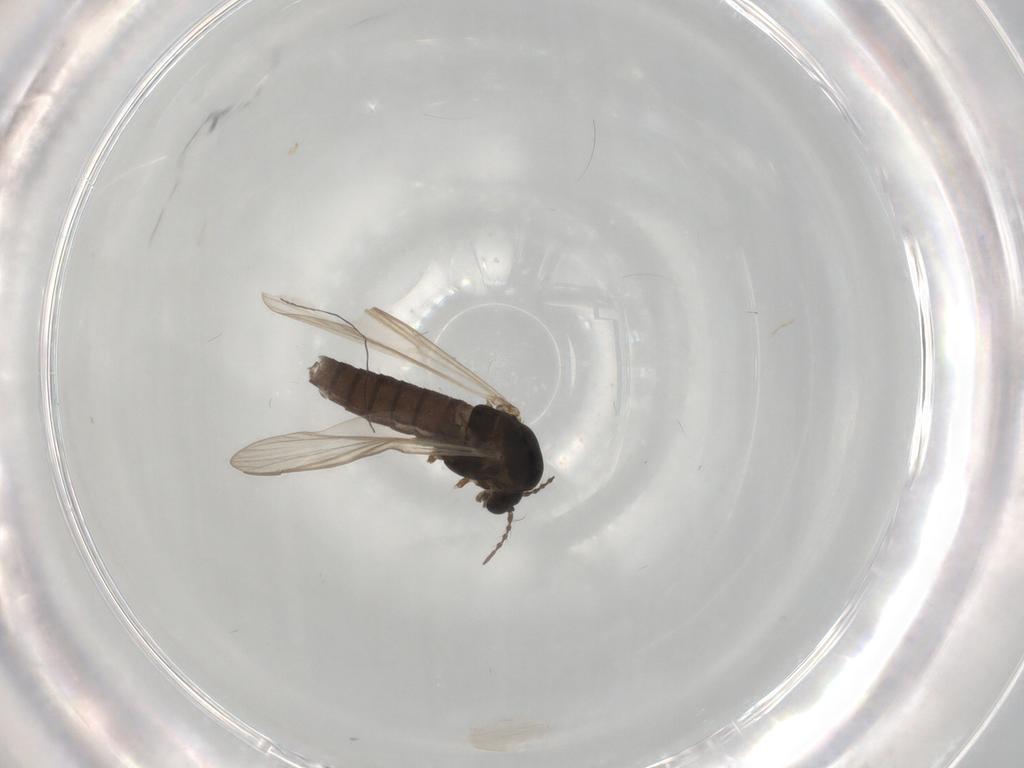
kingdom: Animalia
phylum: Arthropoda
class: Insecta
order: Diptera
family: Chironomidae
